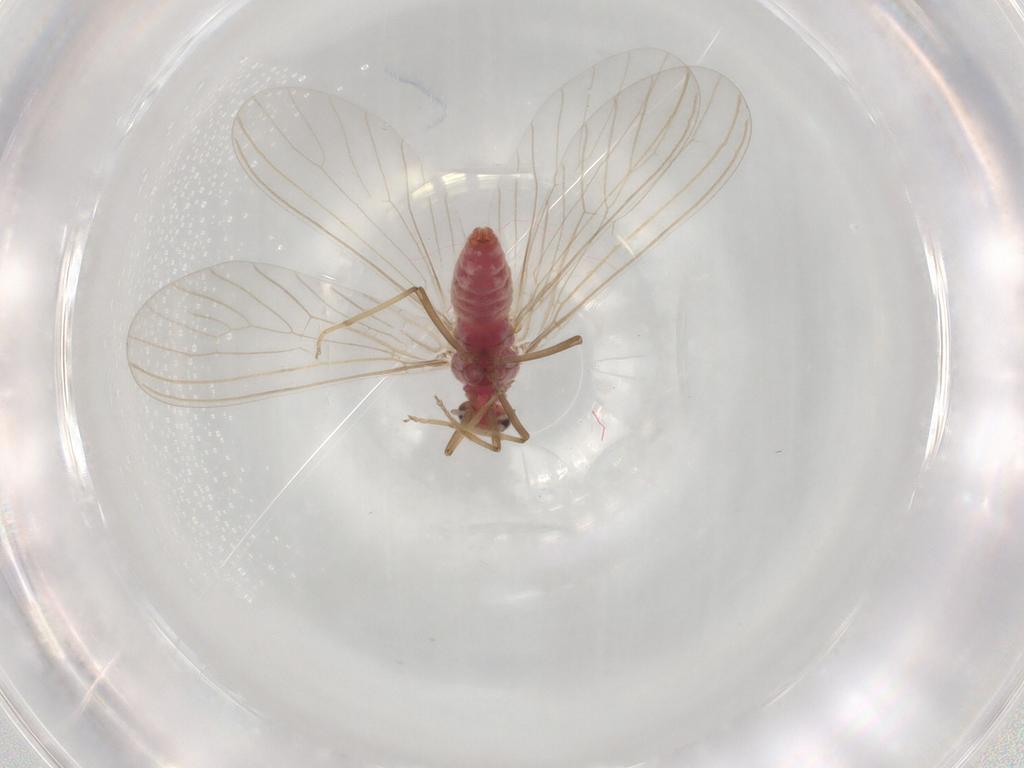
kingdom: Animalia
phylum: Arthropoda
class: Insecta
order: Neuroptera
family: Coniopterygidae
